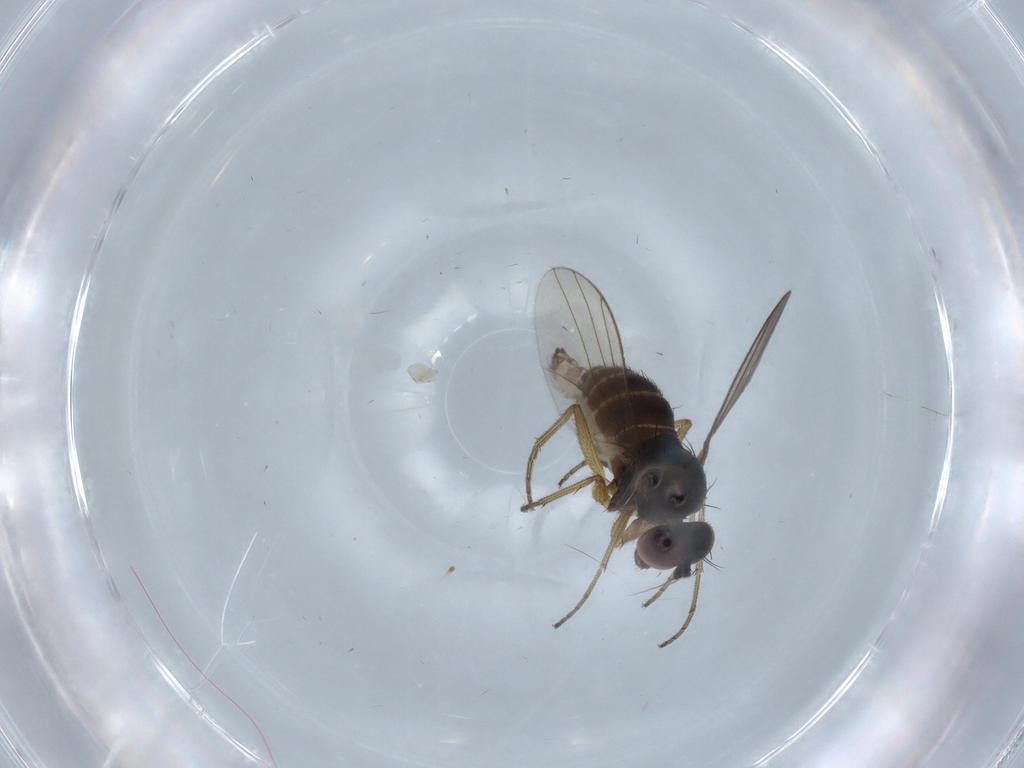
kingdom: Animalia
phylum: Arthropoda
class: Insecta
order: Diptera
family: Dolichopodidae
